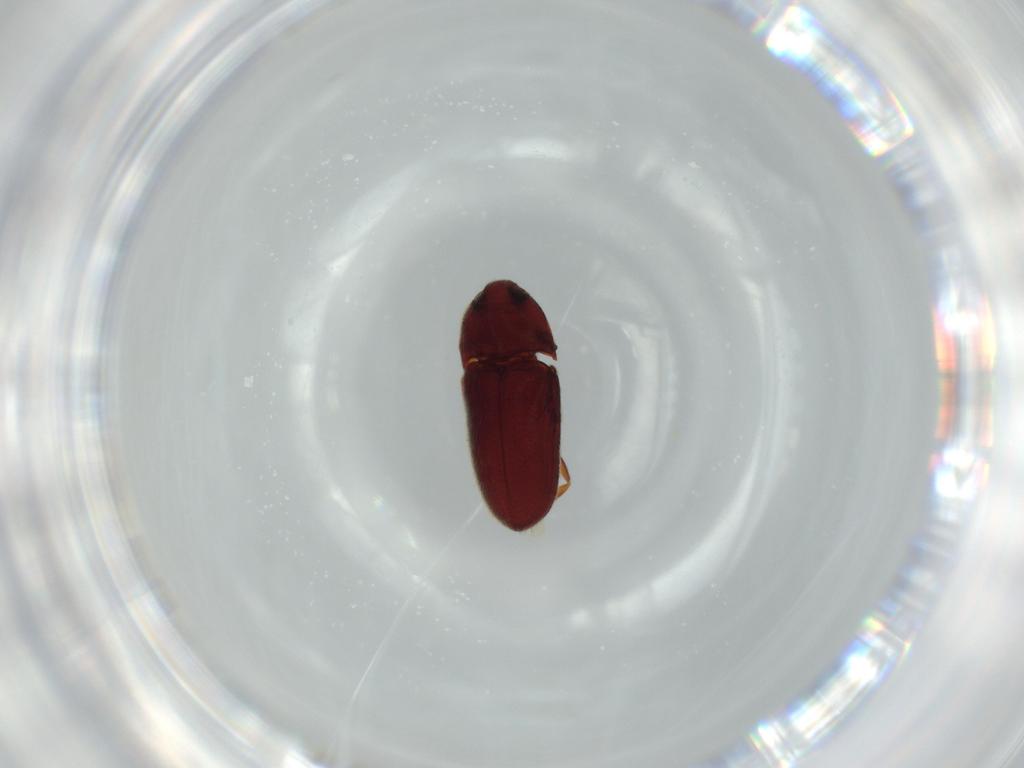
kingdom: Animalia
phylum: Arthropoda
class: Insecta
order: Coleoptera
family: Throscidae
